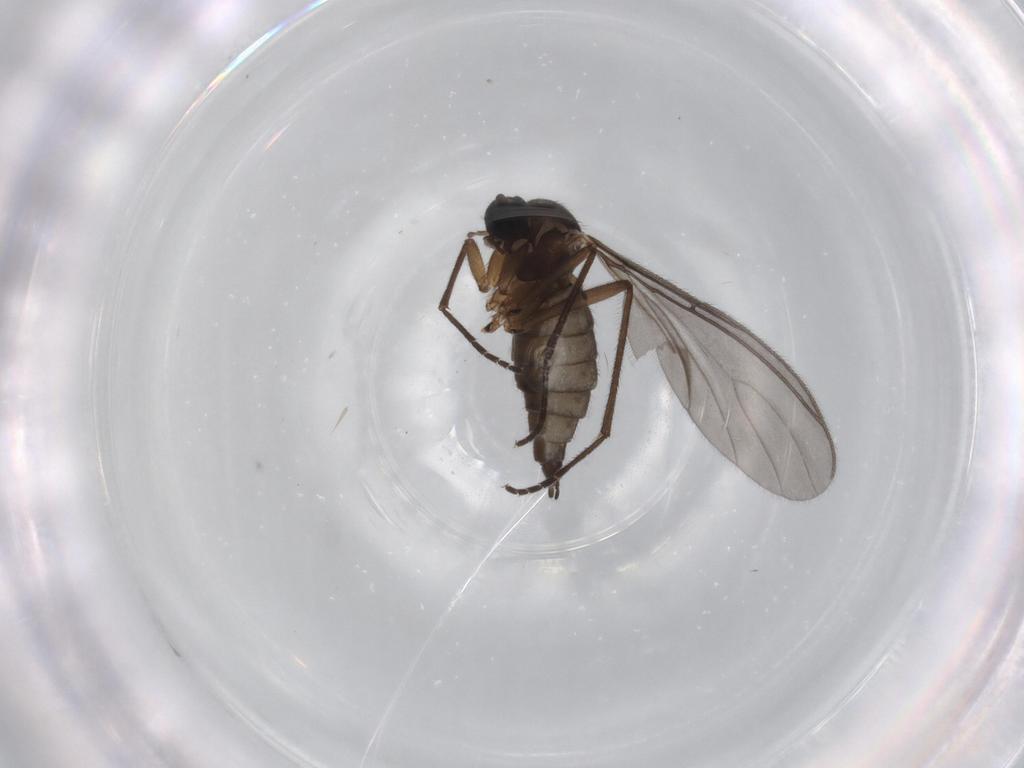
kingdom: Animalia
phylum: Arthropoda
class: Insecta
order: Diptera
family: Sciaridae
